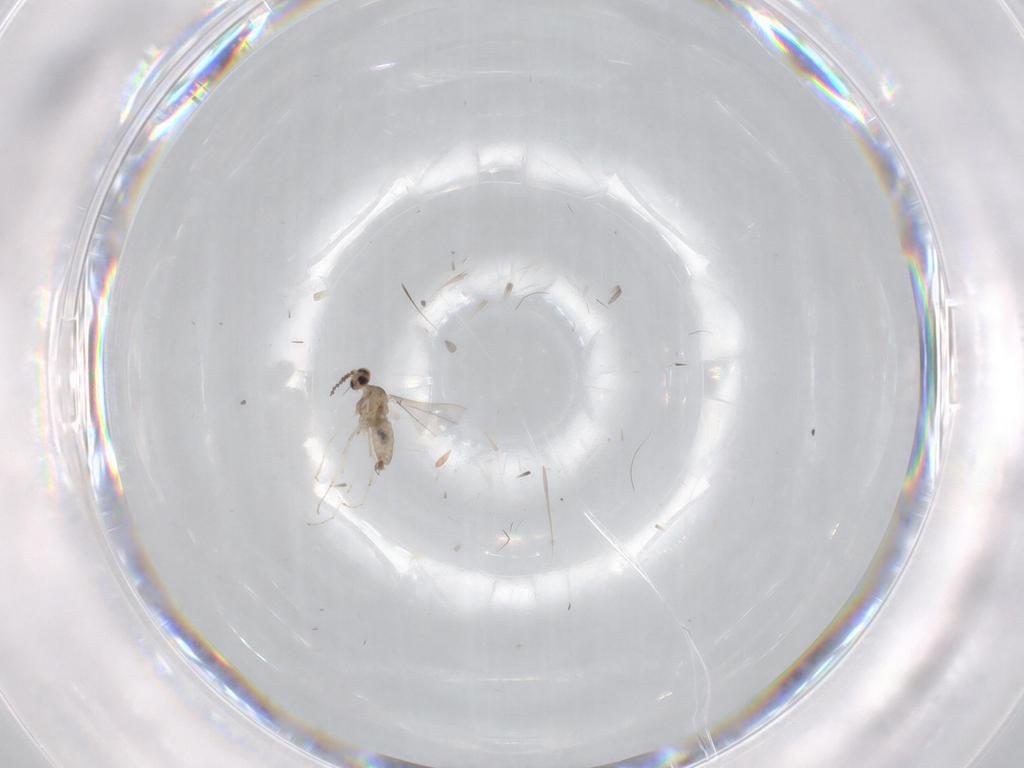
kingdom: Animalia
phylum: Arthropoda
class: Insecta
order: Diptera
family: Cecidomyiidae
